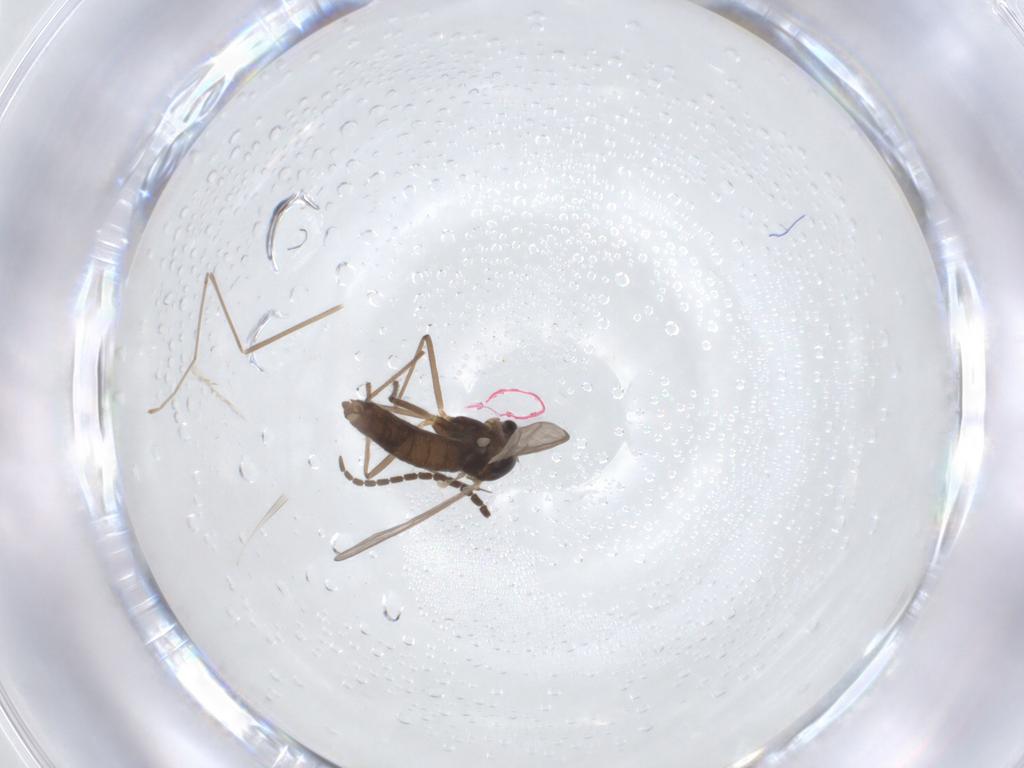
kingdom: Animalia
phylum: Arthropoda
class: Insecta
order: Diptera
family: Chironomidae
